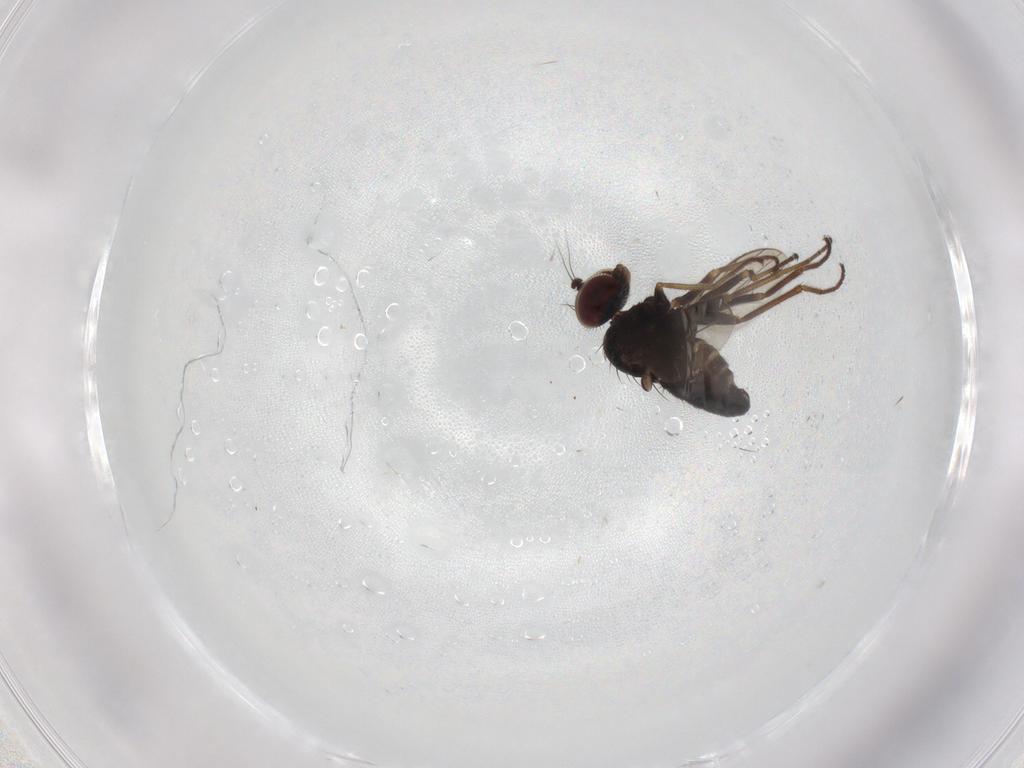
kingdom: Animalia
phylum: Arthropoda
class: Insecta
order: Diptera
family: Dolichopodidae
